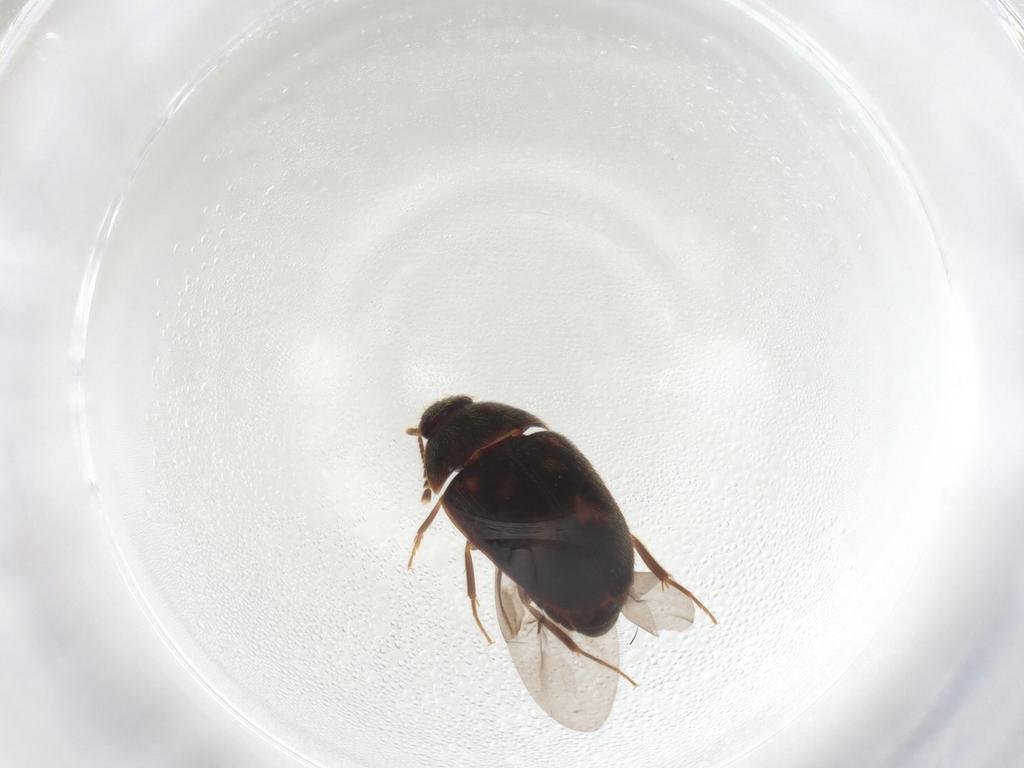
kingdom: Animalia
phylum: Arthropoda
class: Insecta
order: Coleoptera
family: Mycetophagidae
